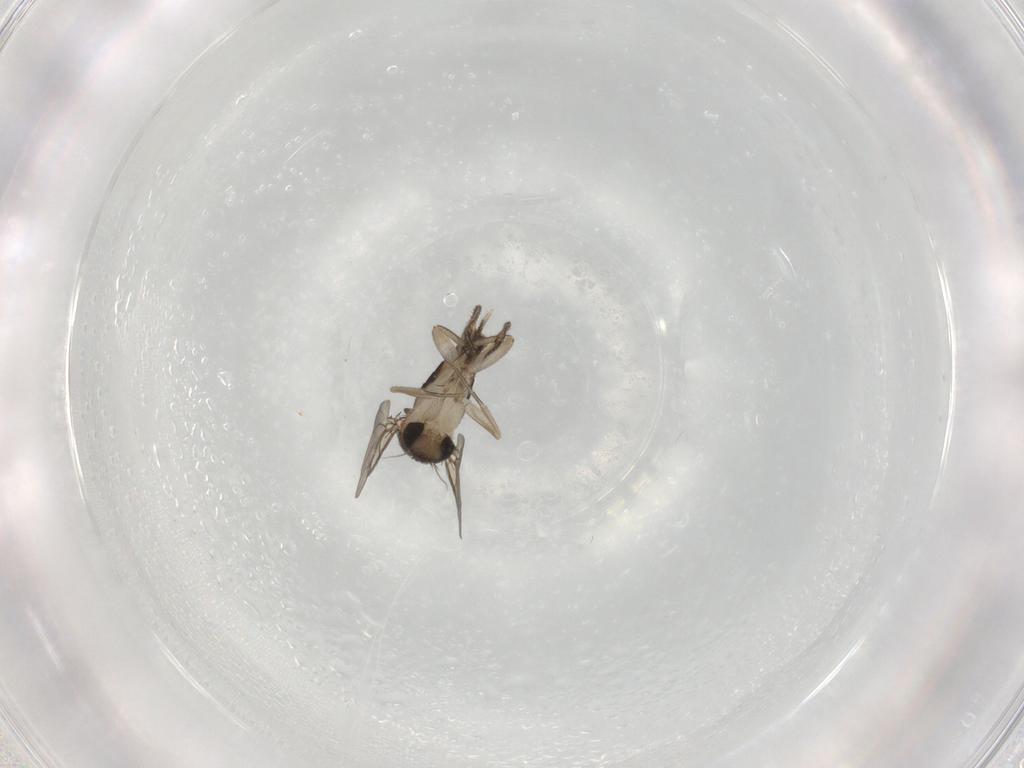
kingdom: Animalia
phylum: Arthropoda
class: Insecta
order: Diptera
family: Phoridae
